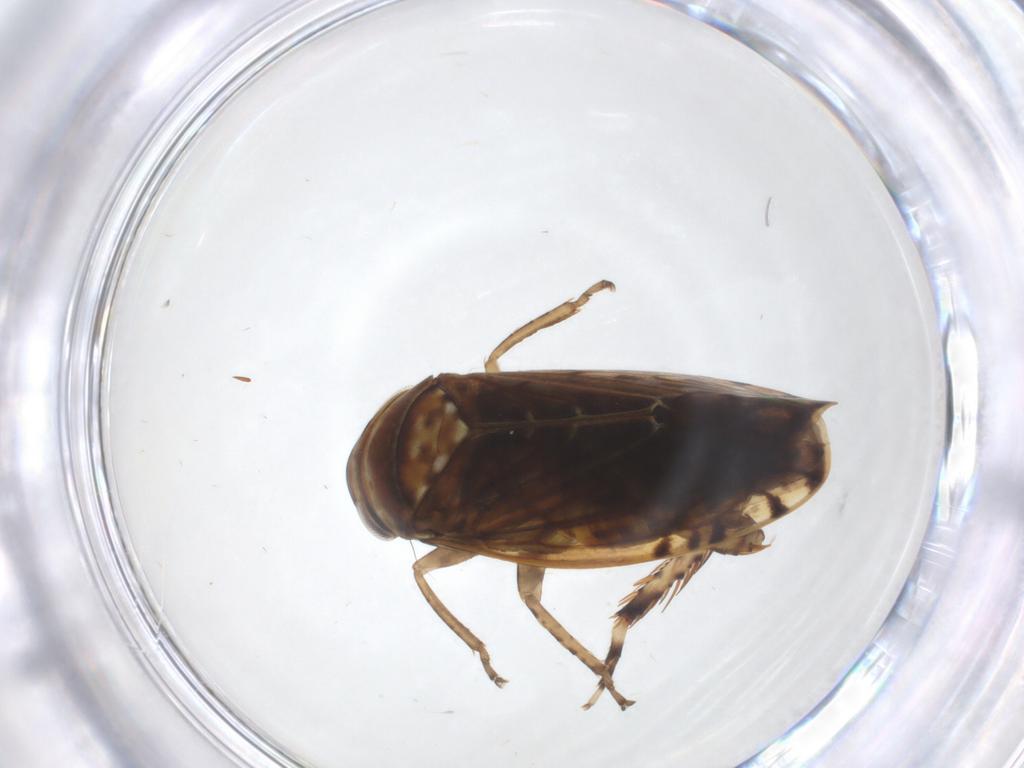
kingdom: Animalia
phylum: Arthropoda
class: Insecta
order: Hemiptera
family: Cicadellidae
